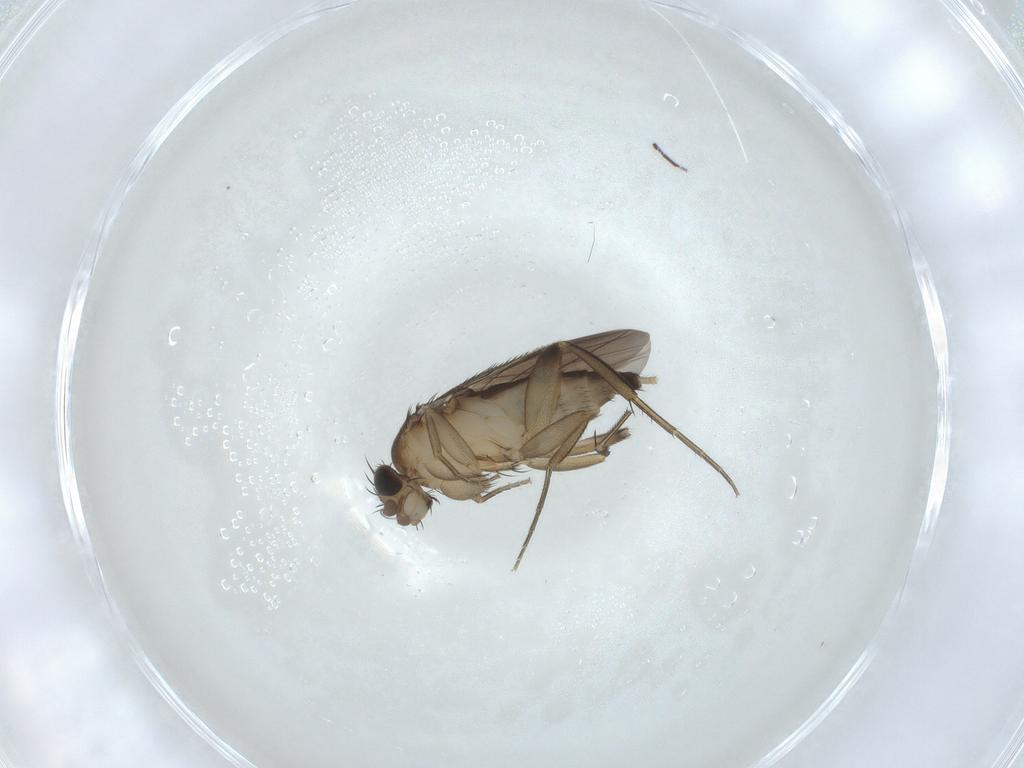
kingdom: Animalia
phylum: Arthropoda
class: Insecta
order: Diptera
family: Phoridae
